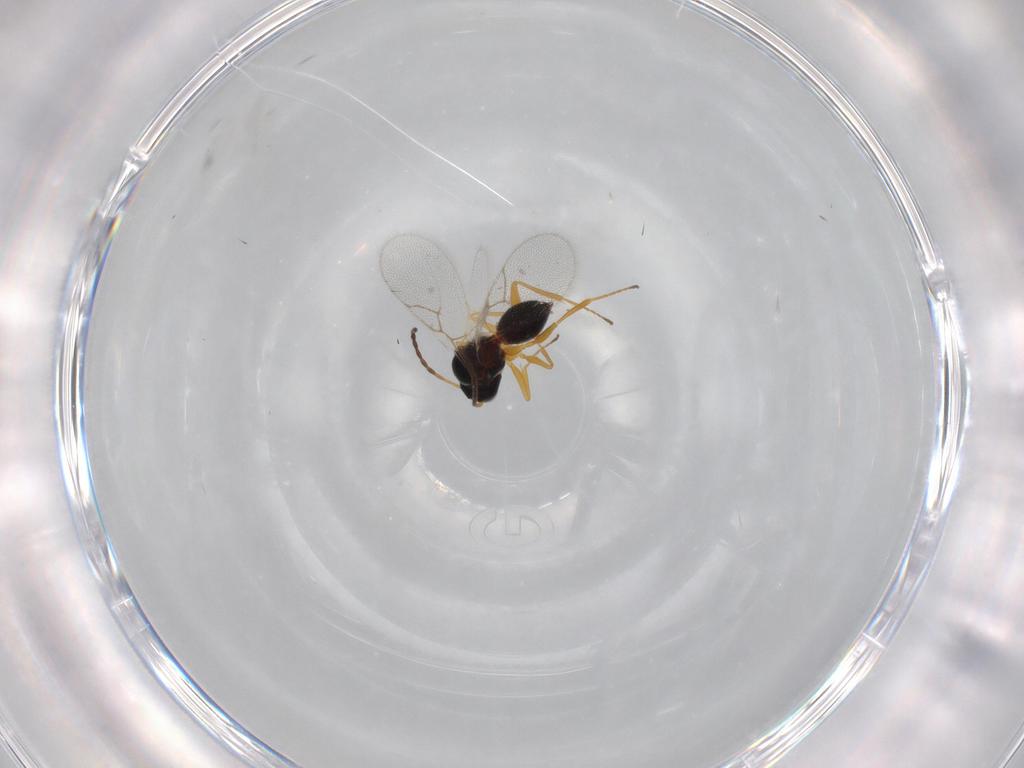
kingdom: Animalia
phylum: Arthropoda
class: Insecta
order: Hymenoptera
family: Figitidae
